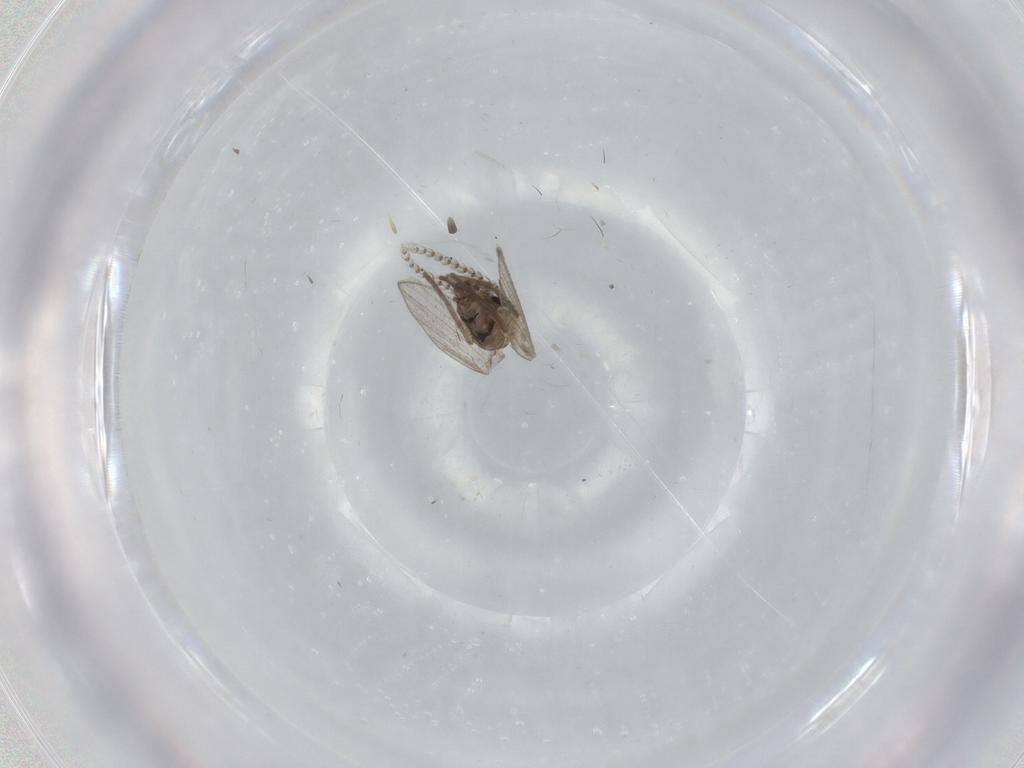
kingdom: Animalia
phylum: Arthropoda
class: Insecta
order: Diptera
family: Psychodidae
